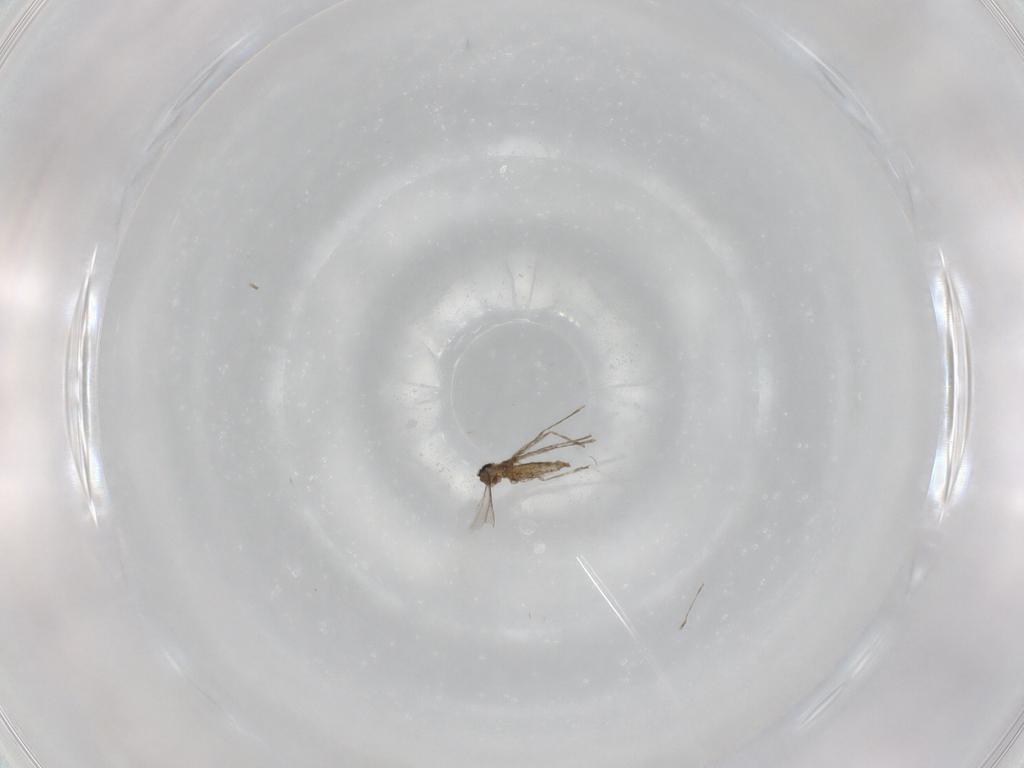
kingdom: Animalia
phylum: Arthropoda
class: Insecta
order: Diptera
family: Cecidomyiidae
